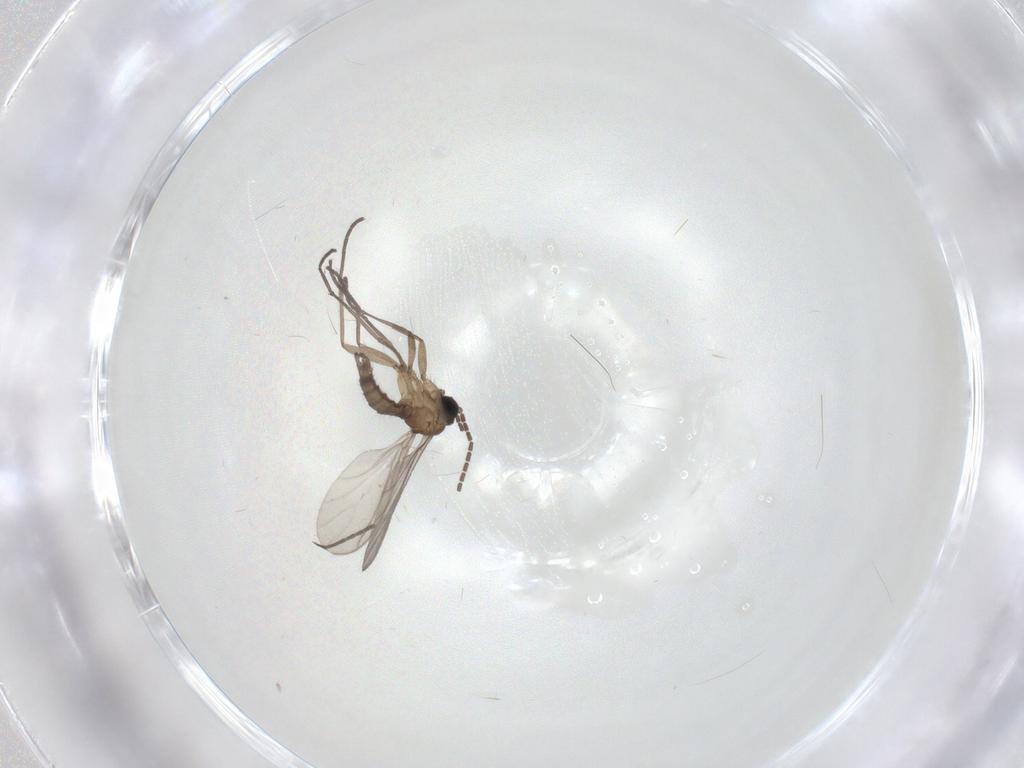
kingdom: Animalia
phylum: Arthropoda
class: Insecta
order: Diptera
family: Sciaridae
